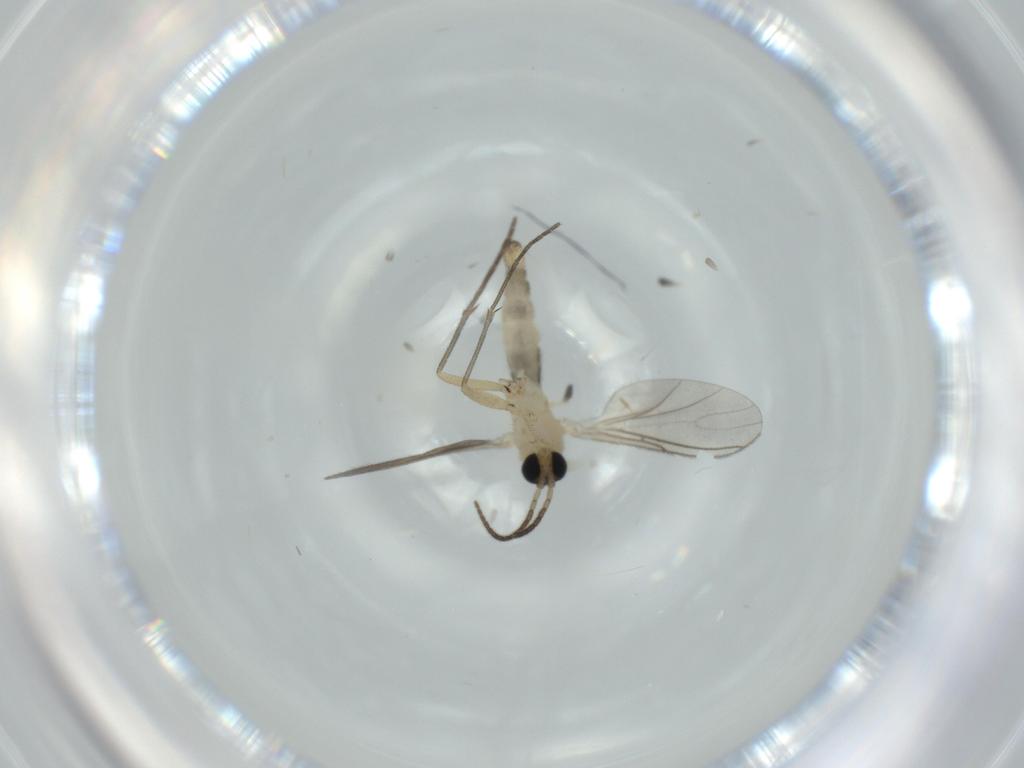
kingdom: Animalia
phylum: Arthropoda
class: Insecta
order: Diptera
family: Sciaridae
